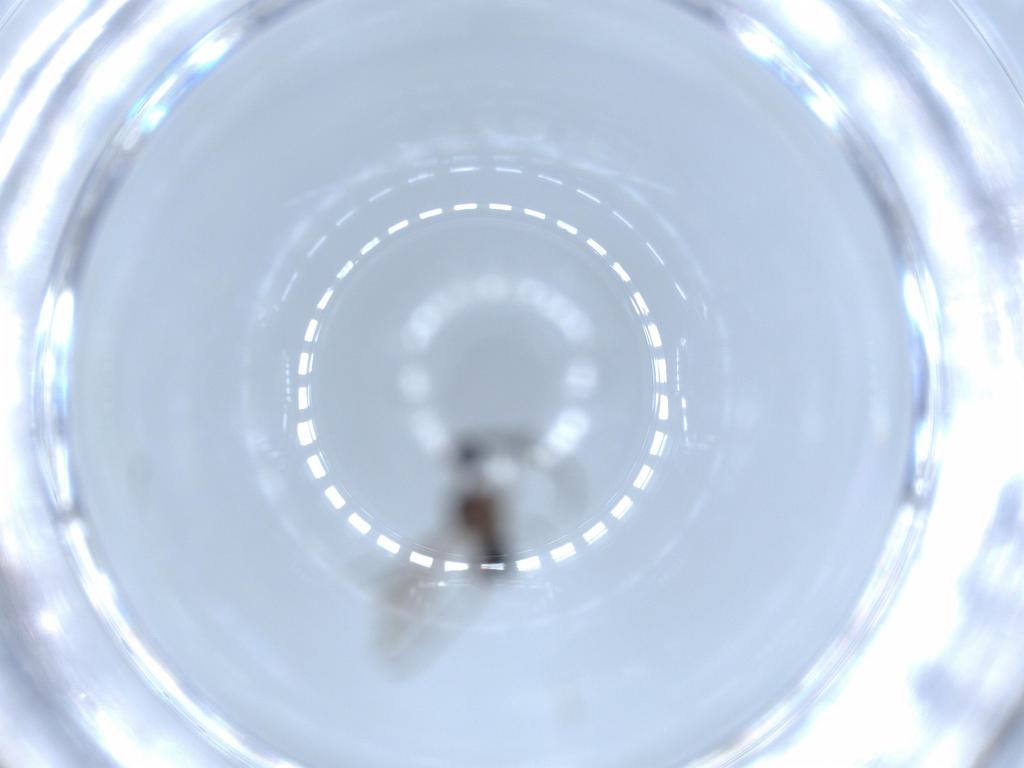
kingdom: Animalia
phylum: Arthropoda
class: Insecta
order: Diptera
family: Sciaridae
